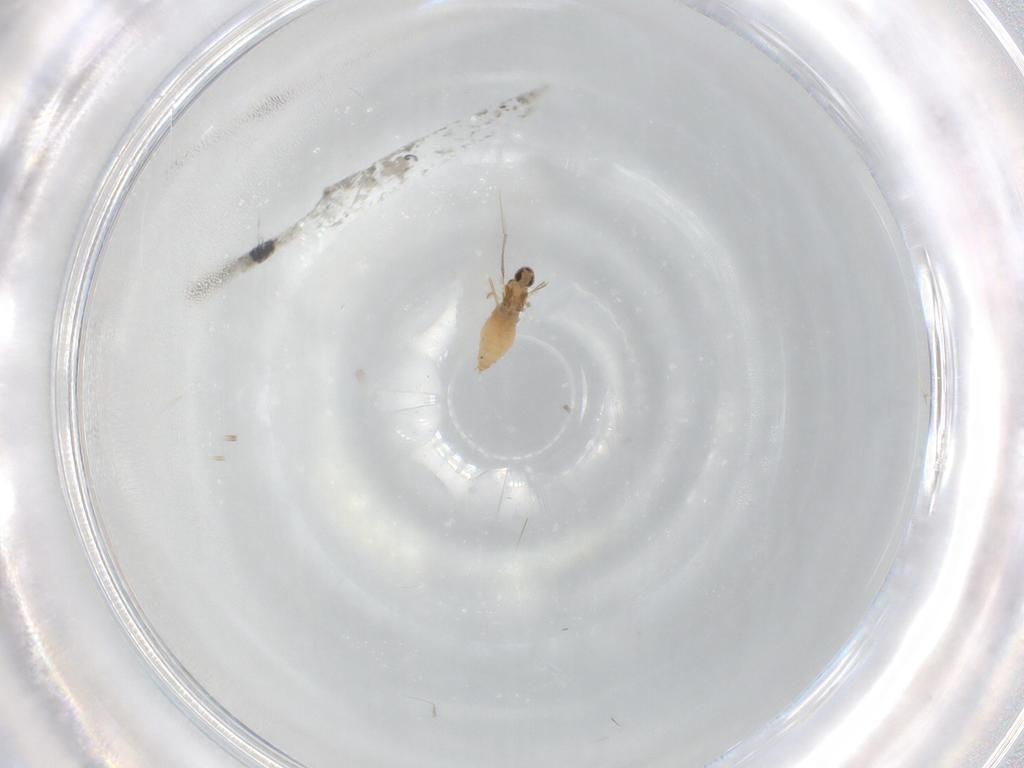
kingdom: Animalia
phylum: Arthropoda
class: Insecta
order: Diptera
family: Cecidomyiidae
